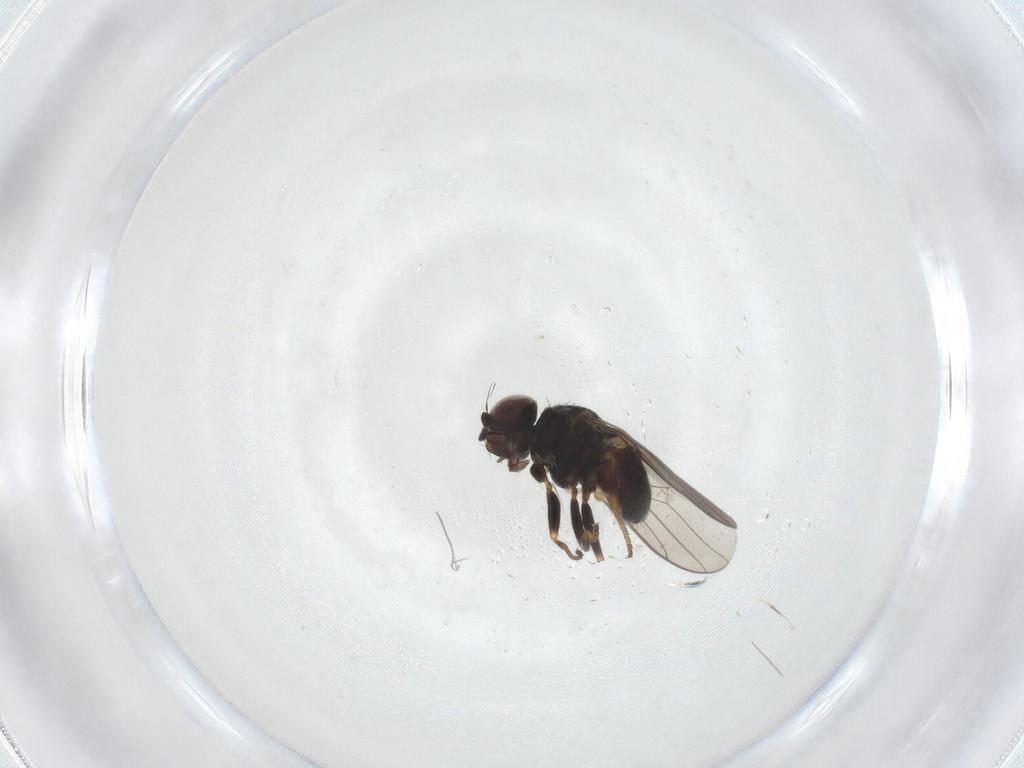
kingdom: Animalia
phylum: Arthropoda
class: Insecta
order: Diptera
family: Chloropidae
